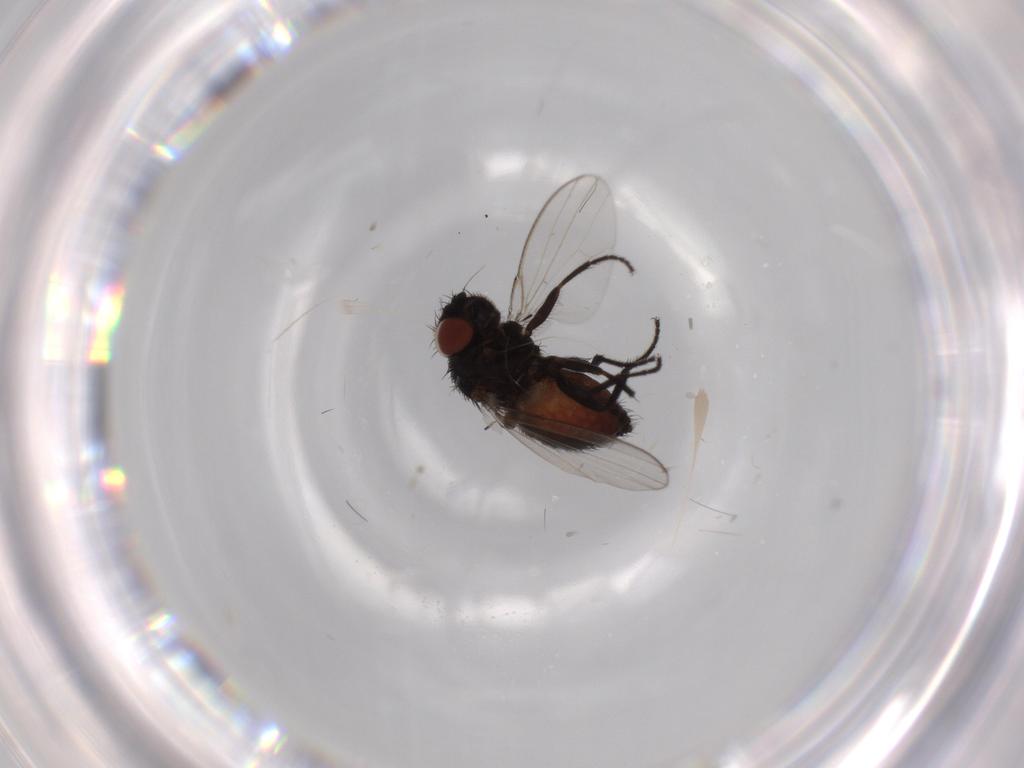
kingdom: Animalia
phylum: Arthropoda
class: Insecta
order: Diptera
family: Milichiidae
